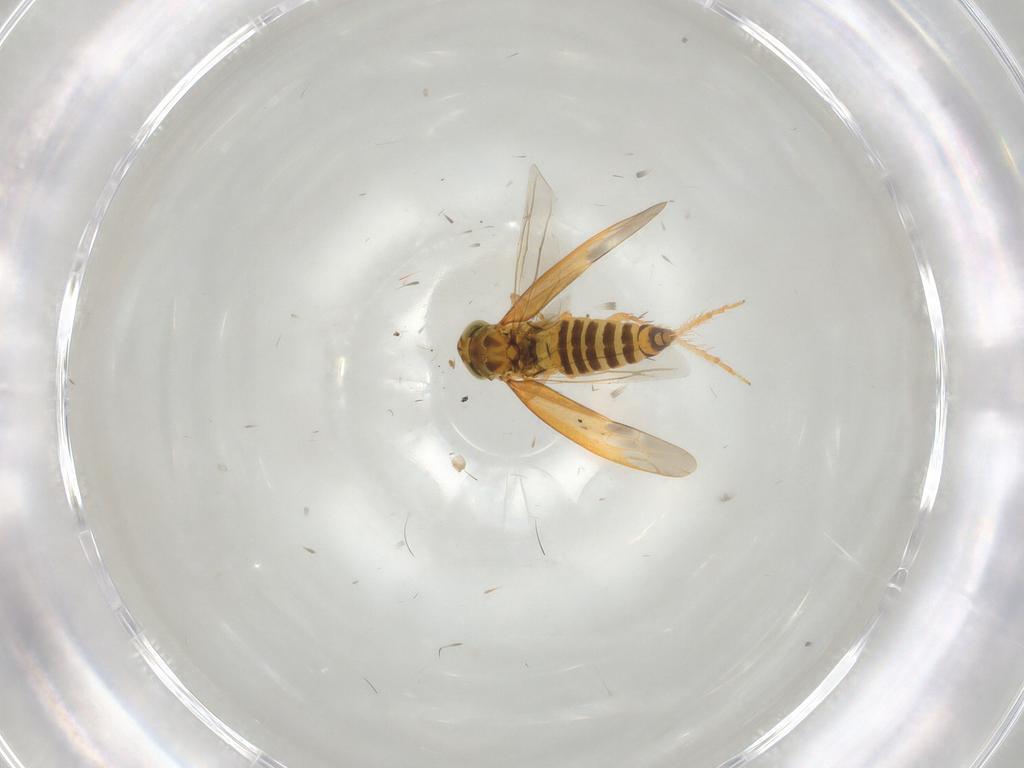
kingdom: Animalia
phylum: Arthropoda
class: Insecta
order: Hemiptera
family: Cicadellidae
